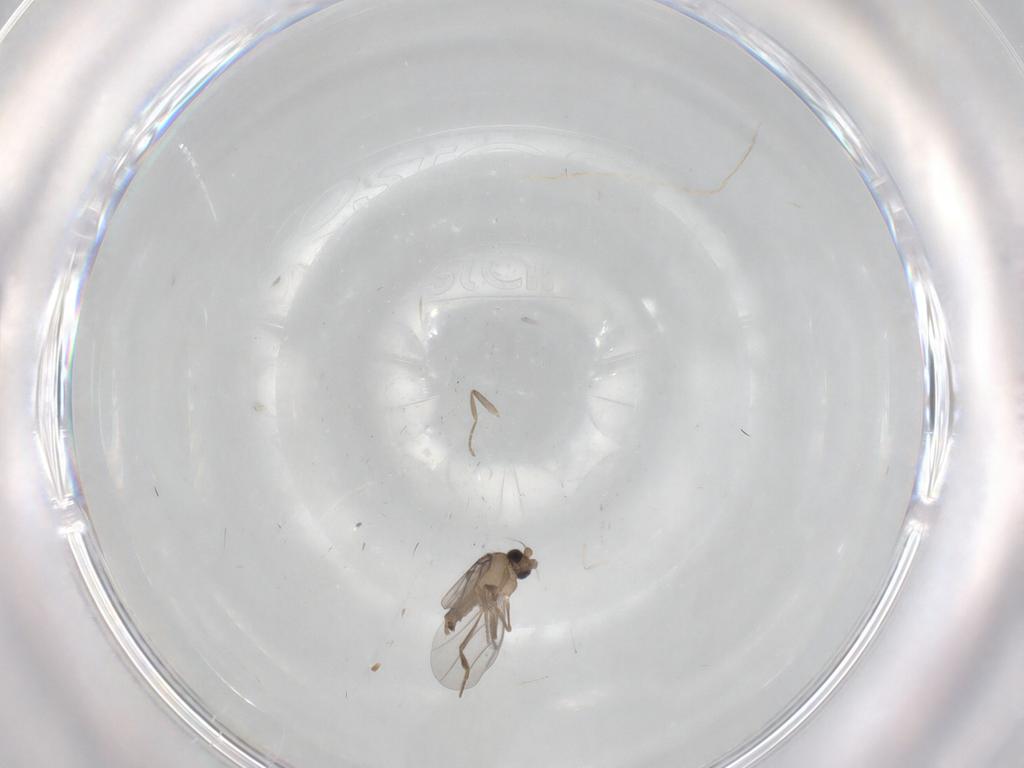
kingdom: Animalia
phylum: Arthropoda
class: Insecta
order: Diptera
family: Cecidomyiidae
